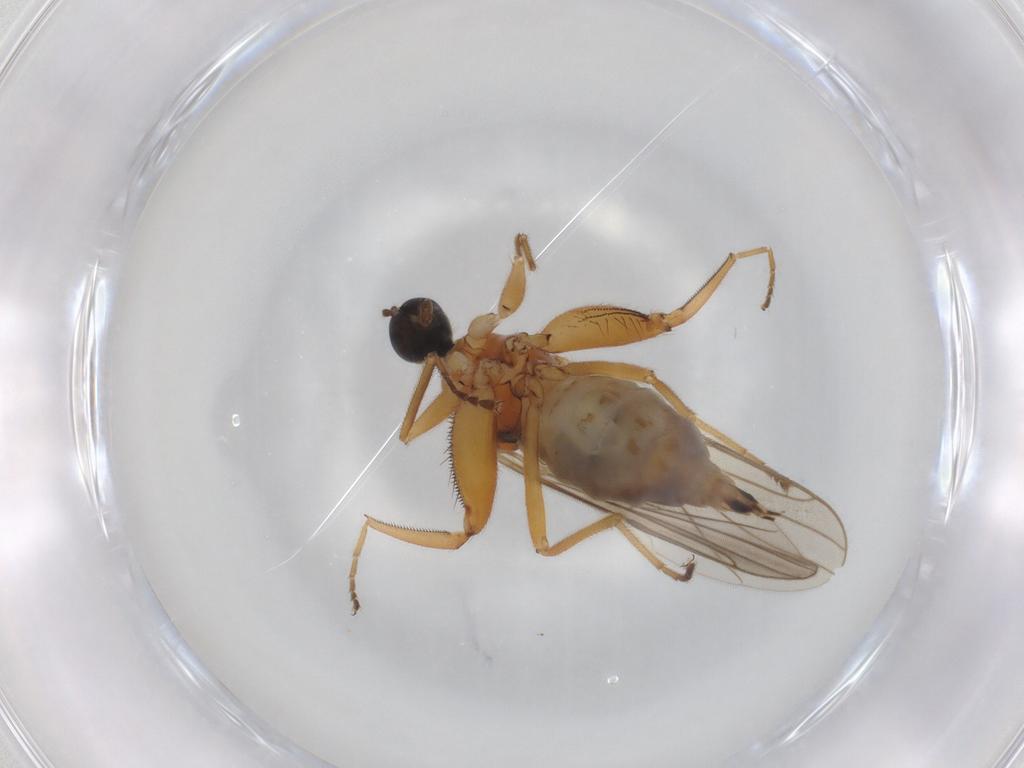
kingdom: Animalia
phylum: Arthropoda
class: Insecta
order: Diptera
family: Hybotidae
